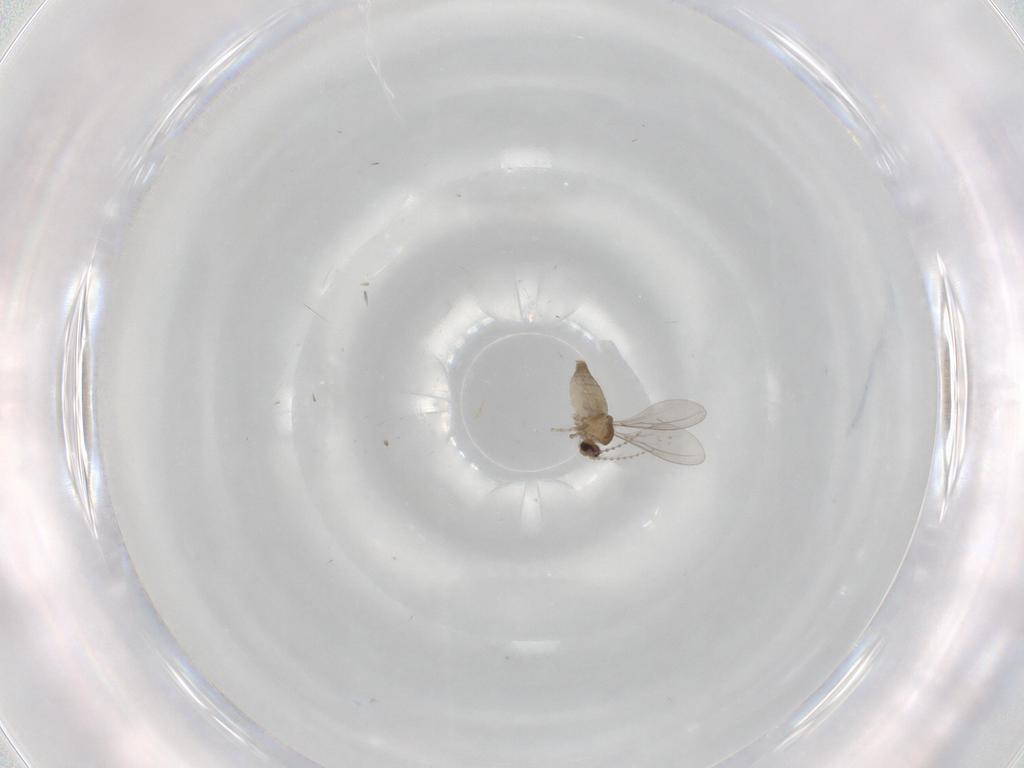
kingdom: Animalia
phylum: Arthropoda
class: Insecta
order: Diptera
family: Cecidomyiidae
